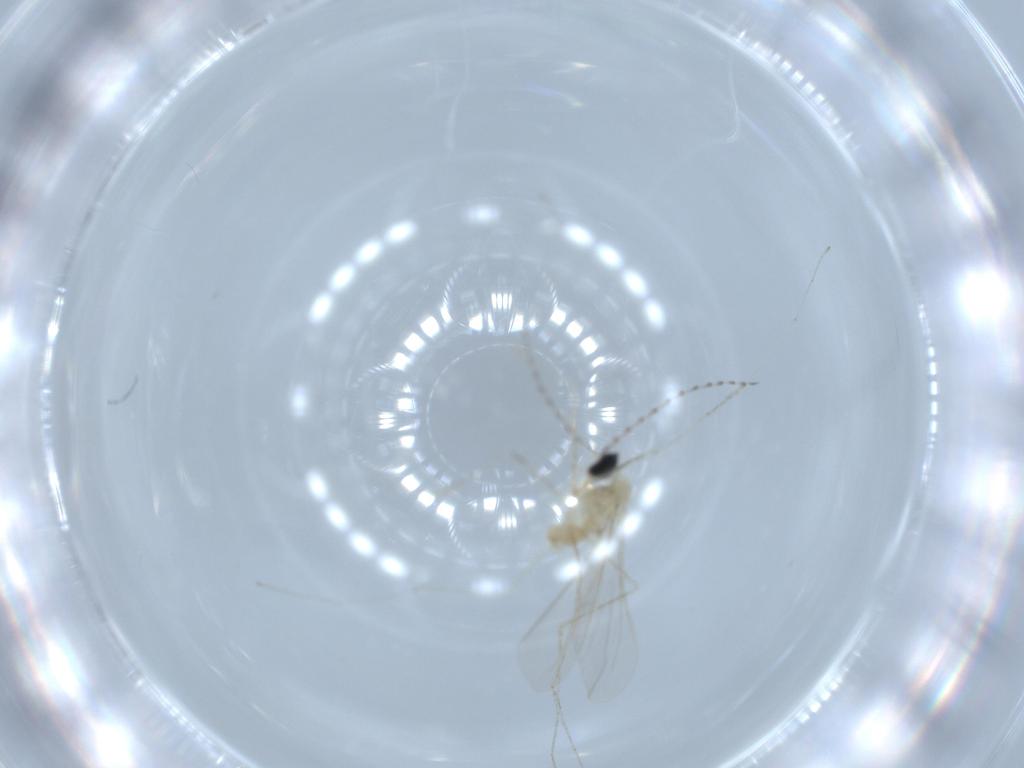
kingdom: Animalia
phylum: Arthropoda
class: Insecta
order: Diptera
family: Cecidomyiidae
